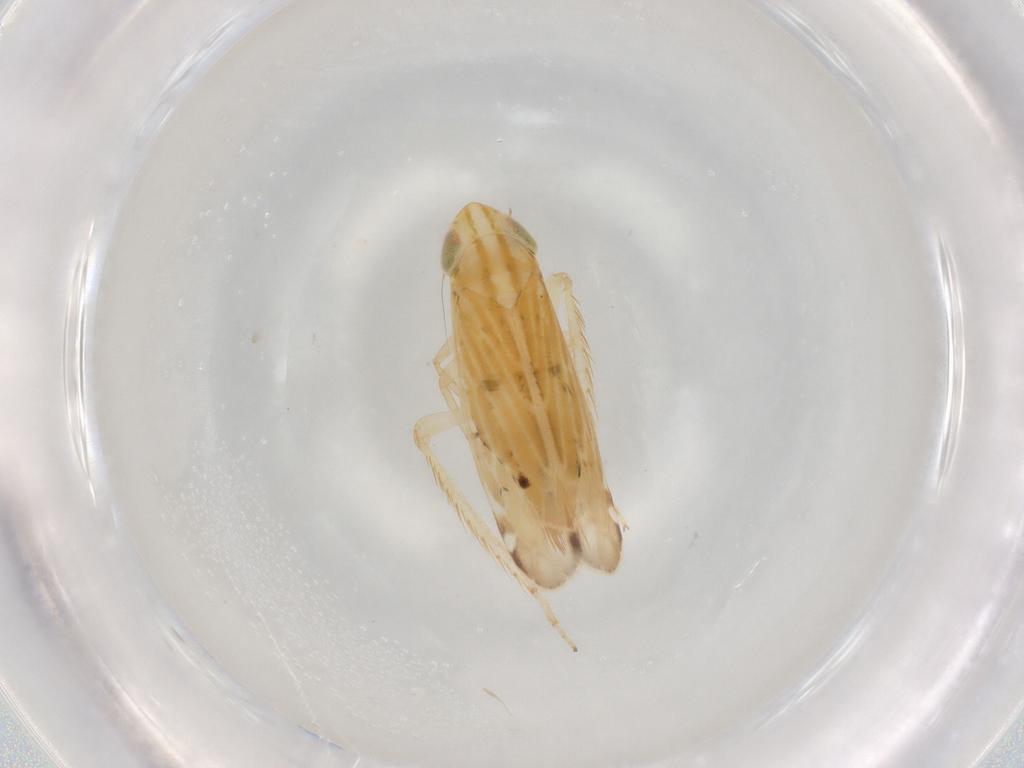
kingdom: Animalia
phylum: Arthropoda
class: Insecta
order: Hemiptera
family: Cicadellidae
